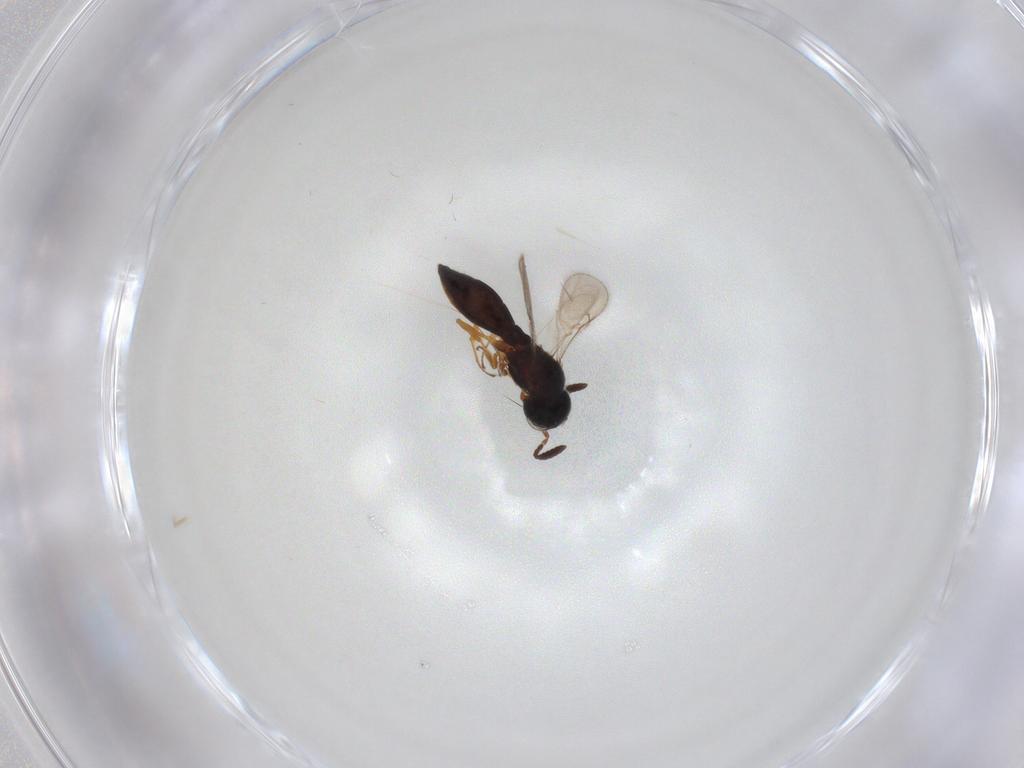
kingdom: Animalia
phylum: Arthropoda
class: Insecta
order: Hymenoptera
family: Scelionidae
